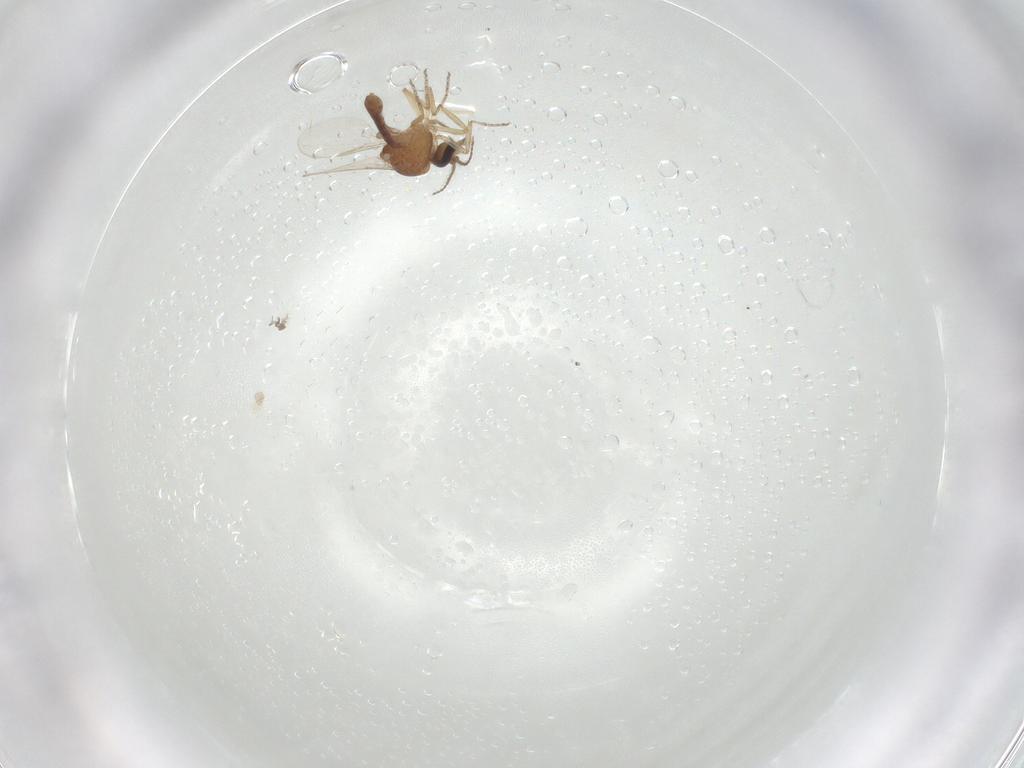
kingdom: Animalia
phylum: Arthropoda
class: Insecta
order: Diptera
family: Ceratopogonidae
